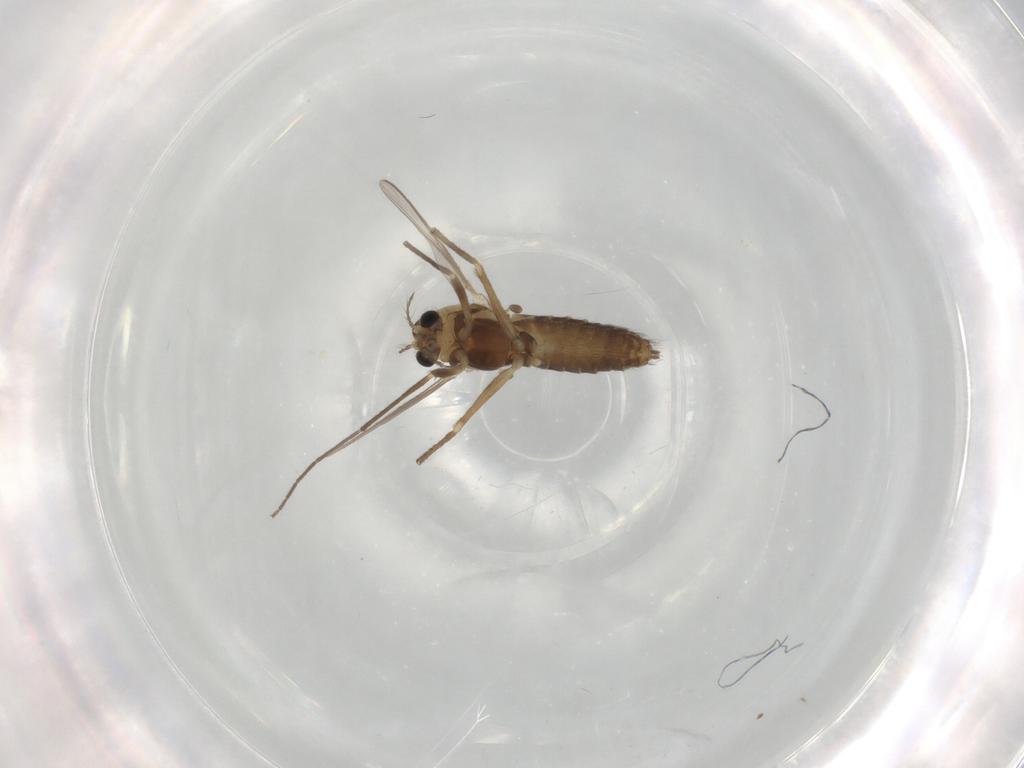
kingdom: Animalia
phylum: Arthropoda
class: Insecta
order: Diptera
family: Chironomidae
